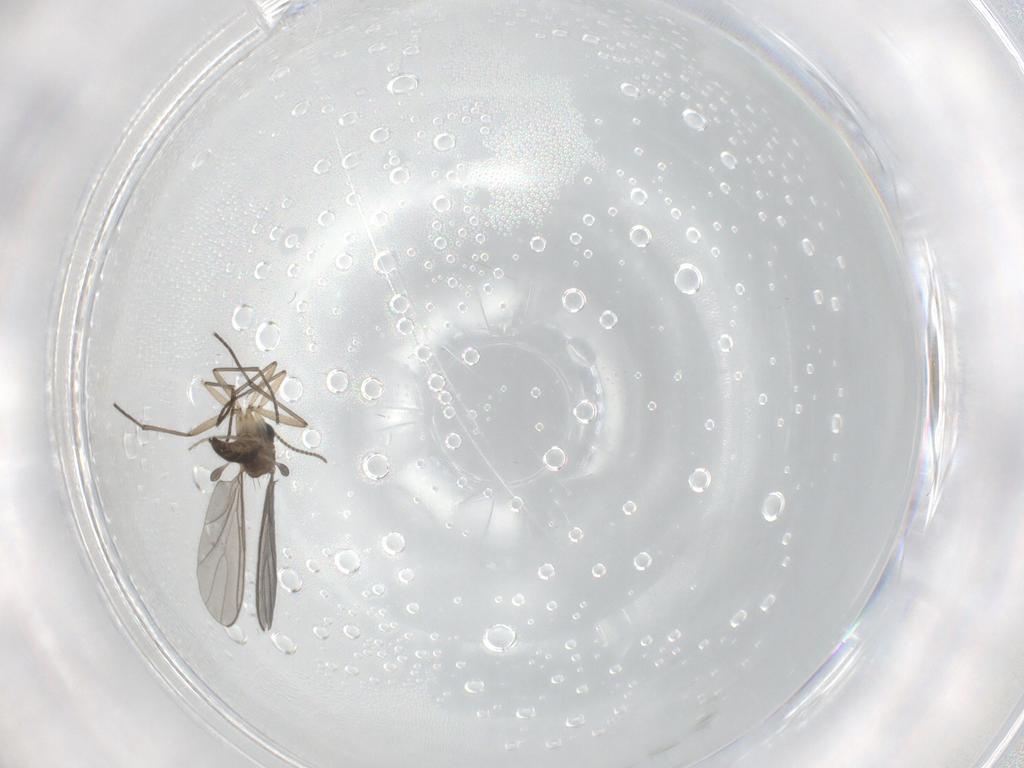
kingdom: Animalia
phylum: Arthropoda
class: Insecta
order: Diptera
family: Sciaridae
